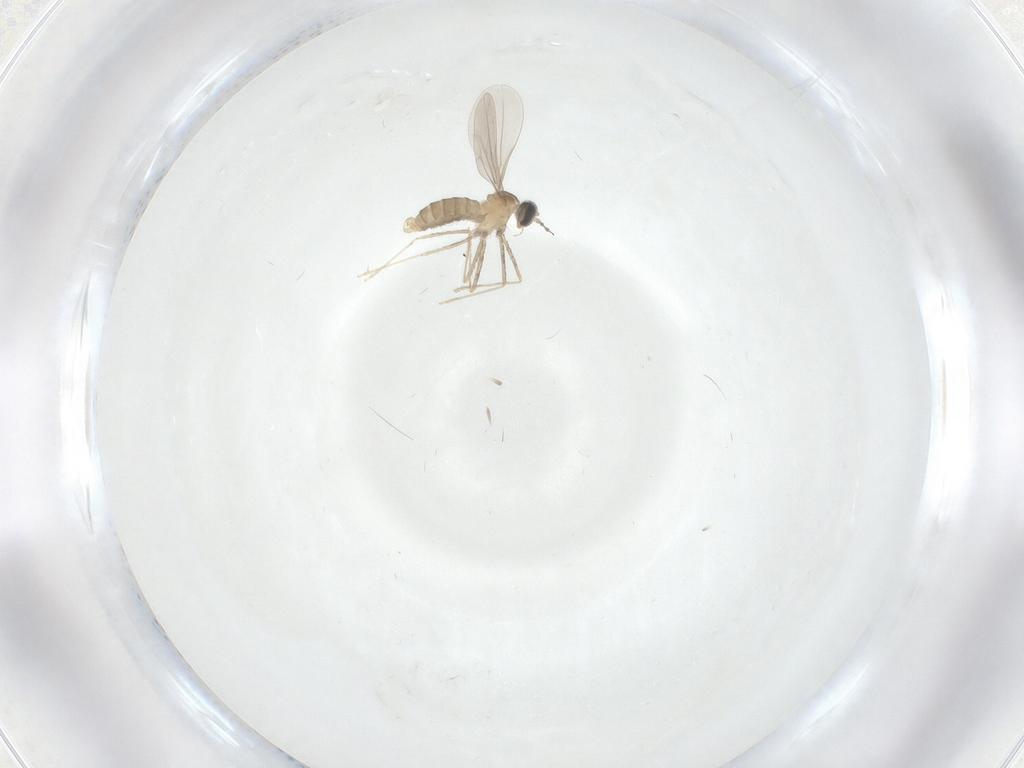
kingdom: Animalia
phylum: Arthropoda
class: Insecta
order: Diptera
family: Cecidomyiidae
